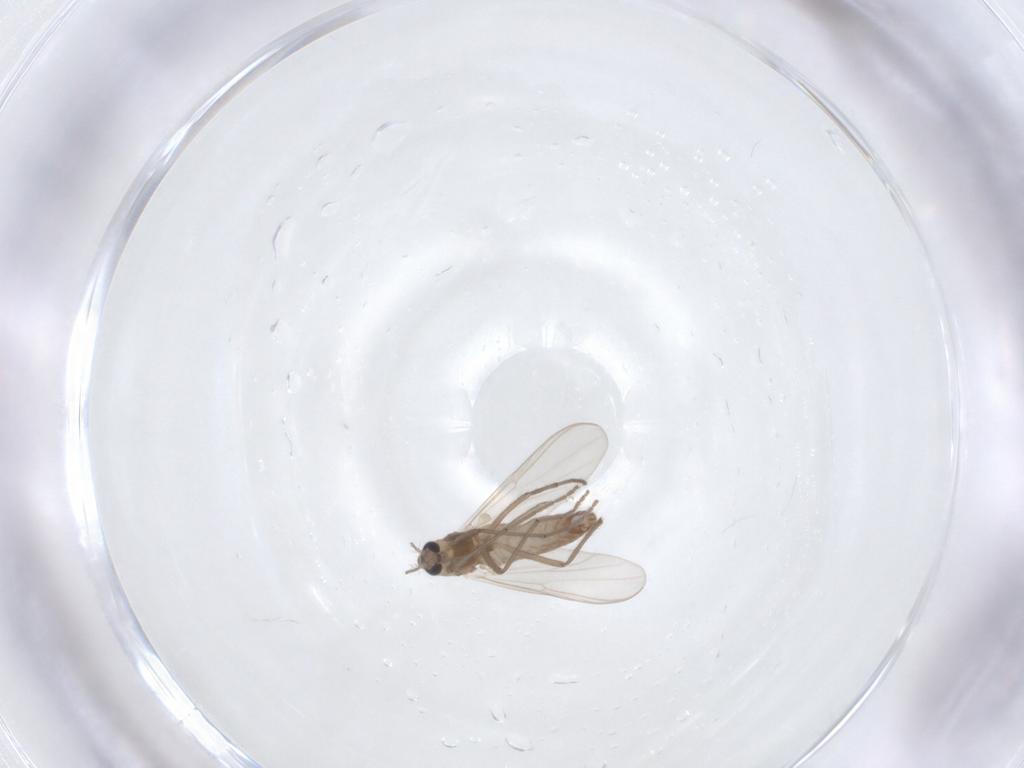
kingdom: Animalia
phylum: Arthropoda
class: Insecta
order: Diptera
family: Chironomidae
